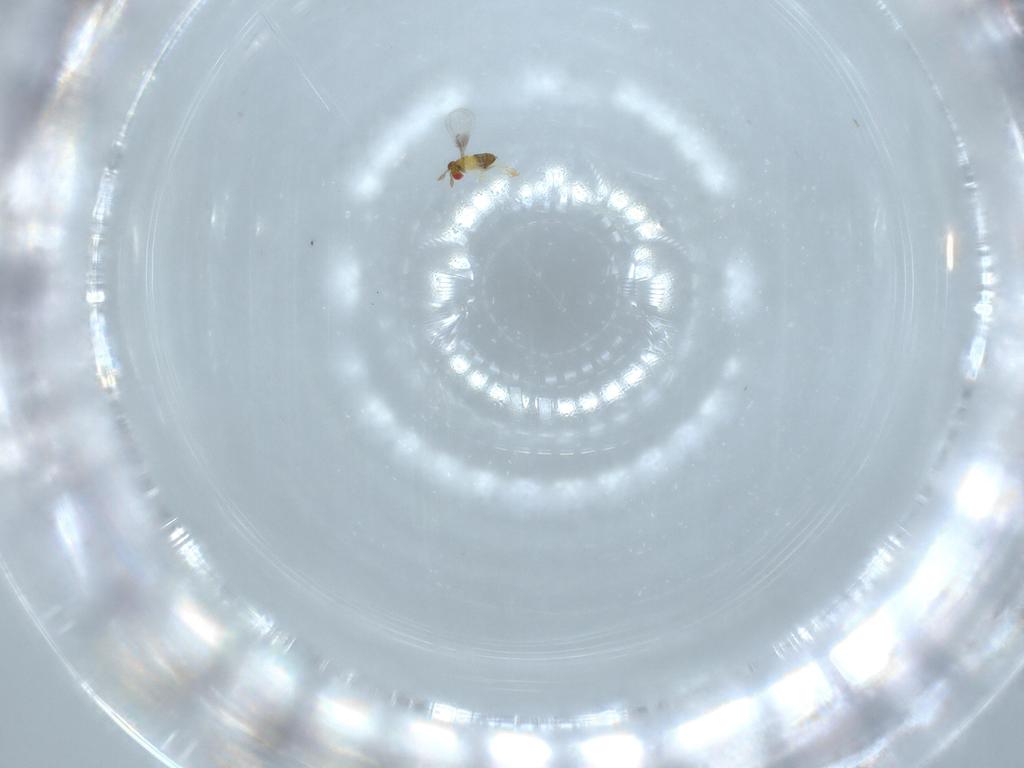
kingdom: Animalia
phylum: Arthropoda
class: Insecta
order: Hymenoptera
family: Trichogrammatidae
